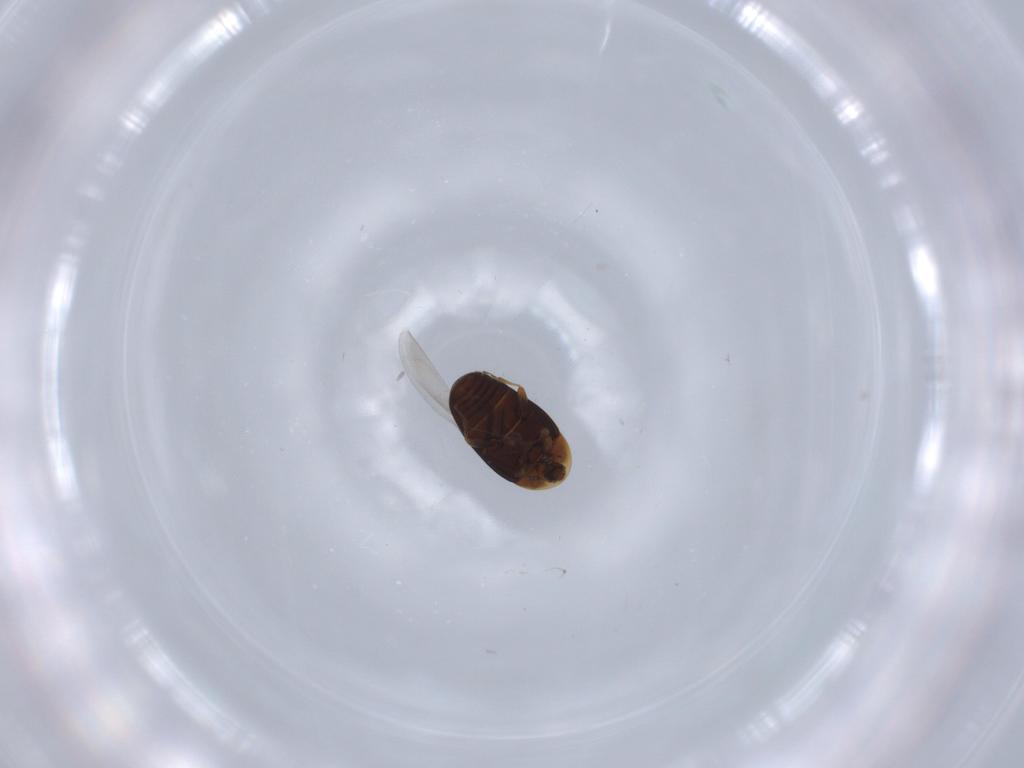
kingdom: Animalia
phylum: Arthropoda
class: Insecta
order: Coleoptera
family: Corylophidae
